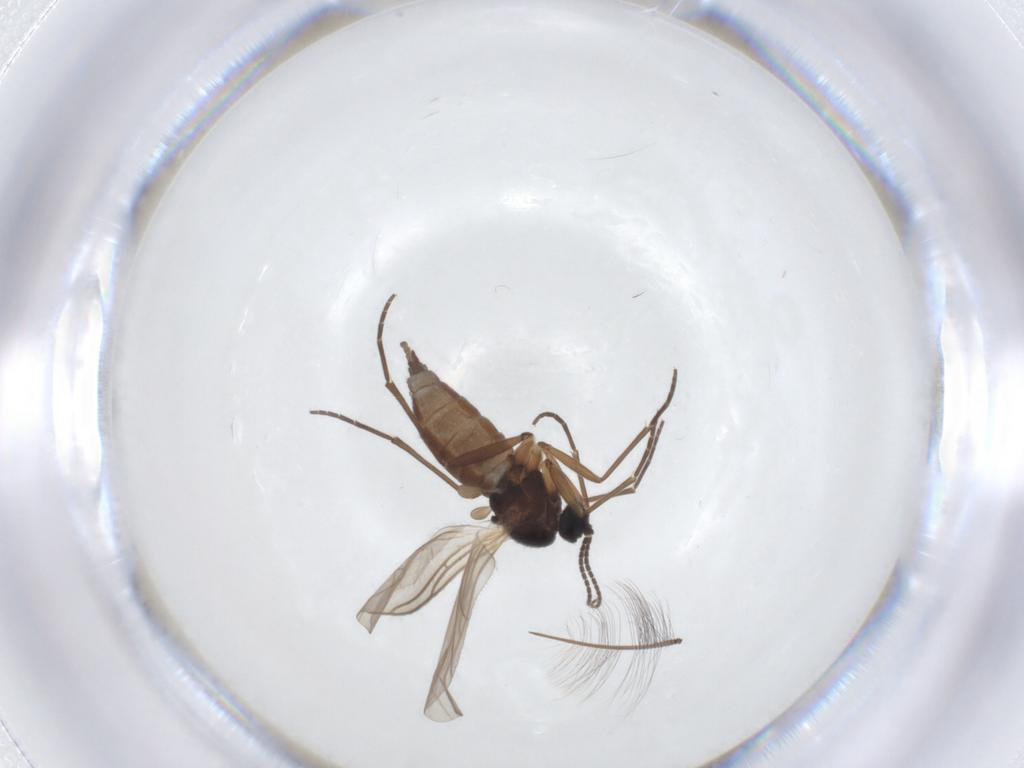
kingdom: Animalia
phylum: Arthropoda
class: Insecta
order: Diptera
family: Sciaridae
